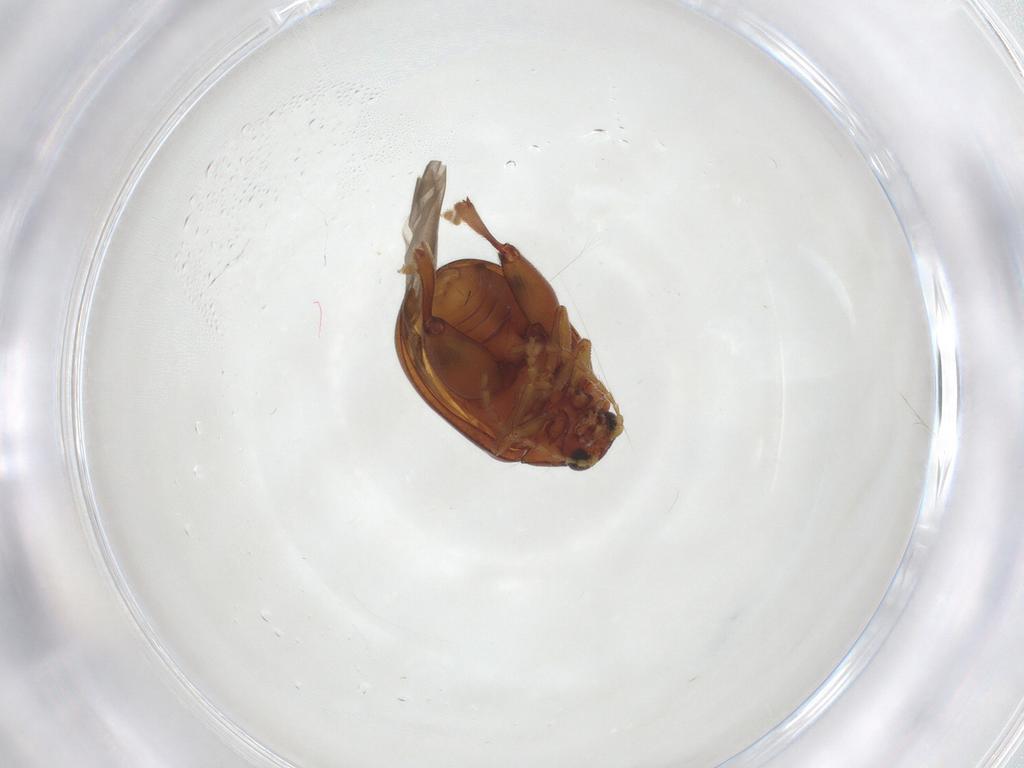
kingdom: Animalia
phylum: Arthropoda
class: Insecta
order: Coleoptera
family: Chrysomelidae
